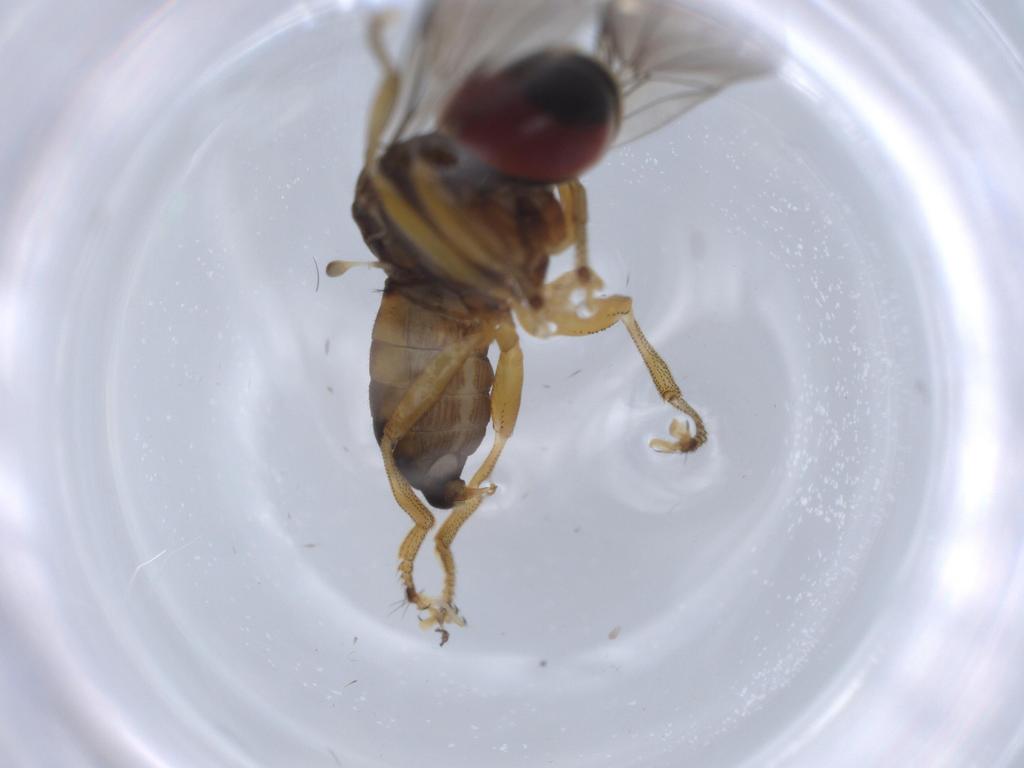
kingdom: Animalia
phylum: Arthropoda
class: Insecta
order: Diptera
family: Pipunculidae
